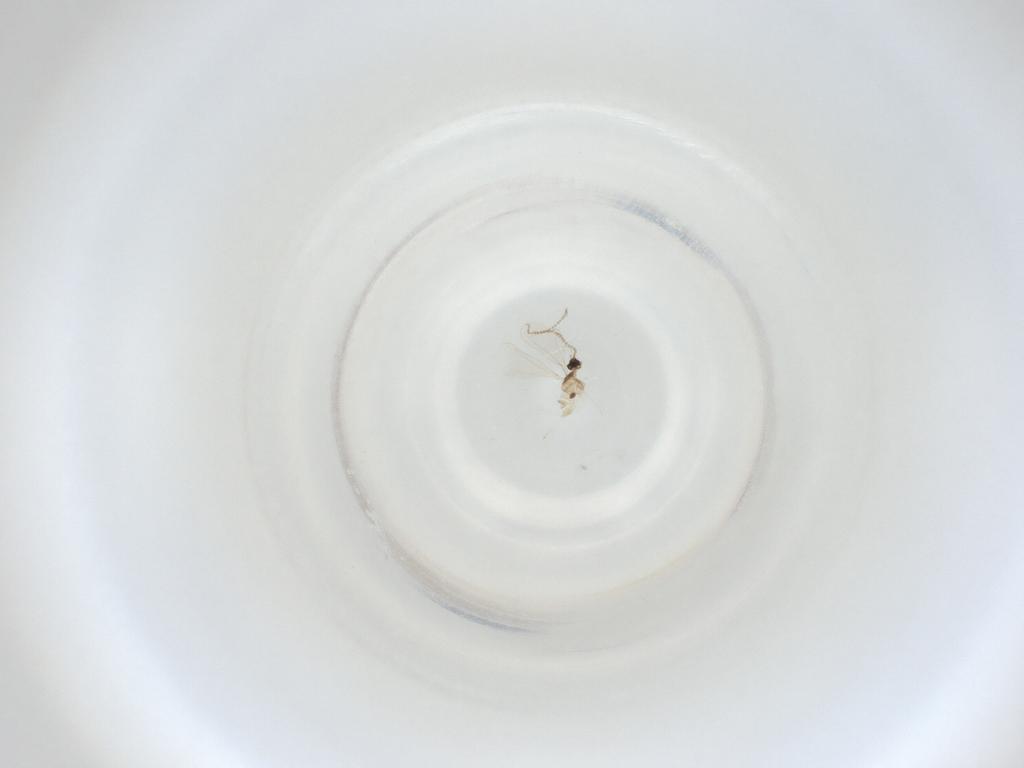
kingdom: Animalia
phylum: Arthropoda
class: Insecta
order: Diptera
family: Cecidomyiidae
